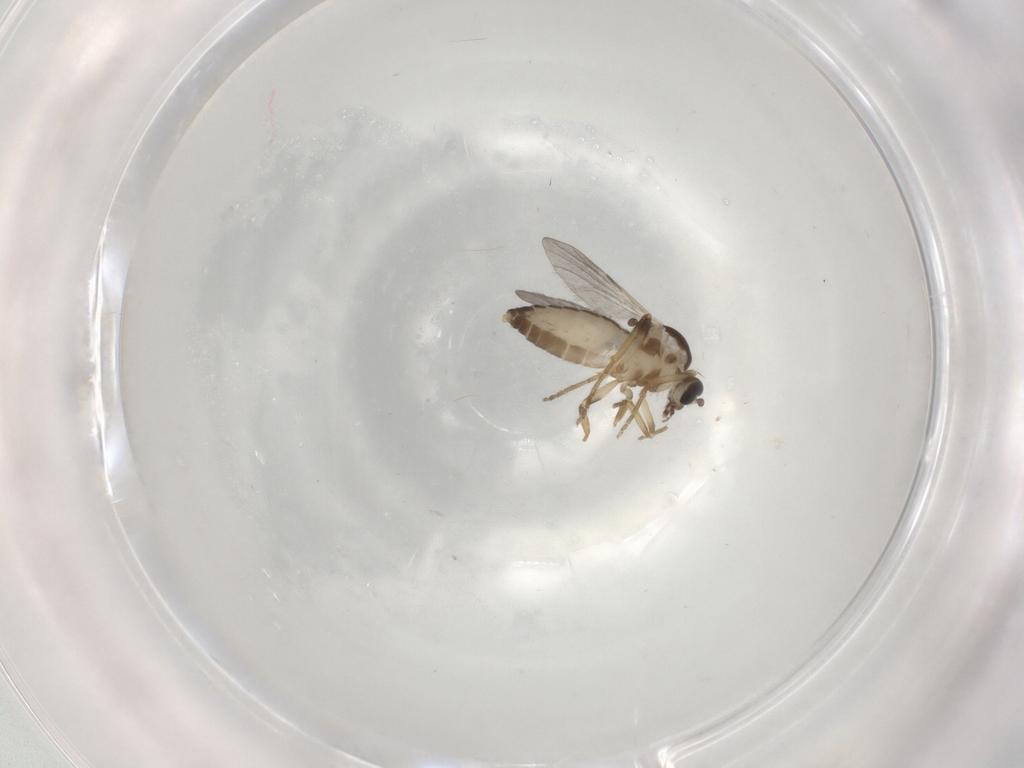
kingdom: Animalia
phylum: Arthropoda
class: Insecta
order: Diptera
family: Ceratopogonidae
